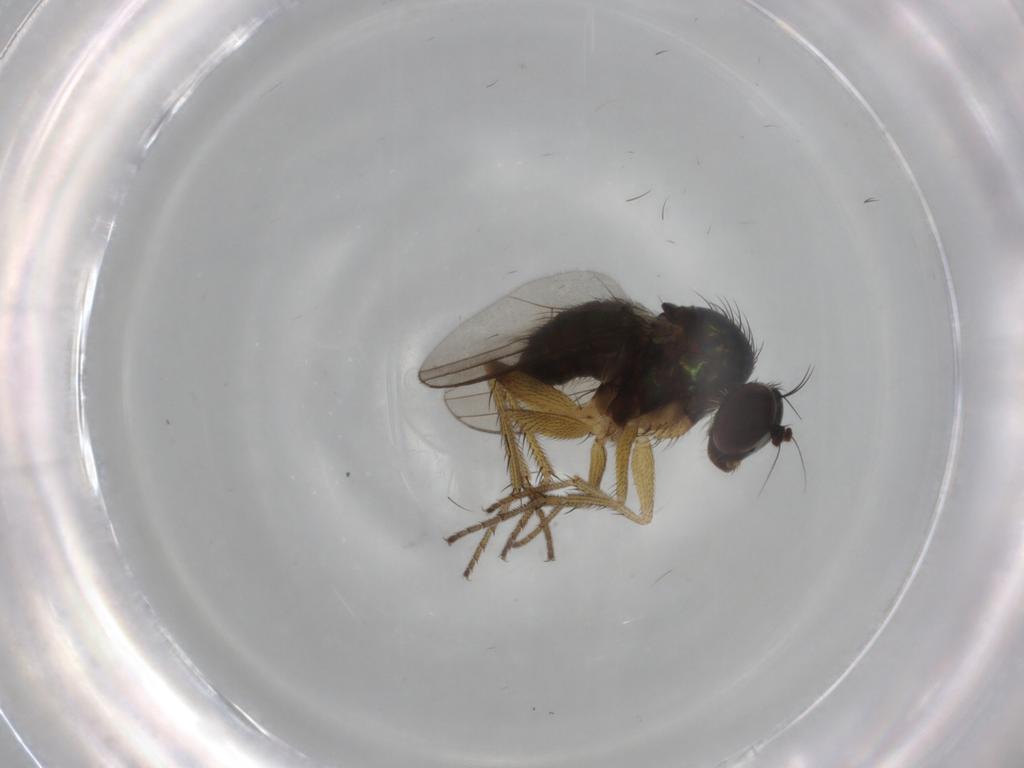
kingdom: Animalia
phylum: Arthropoda
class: Insecta
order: Diptera
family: Dolichopodidae
